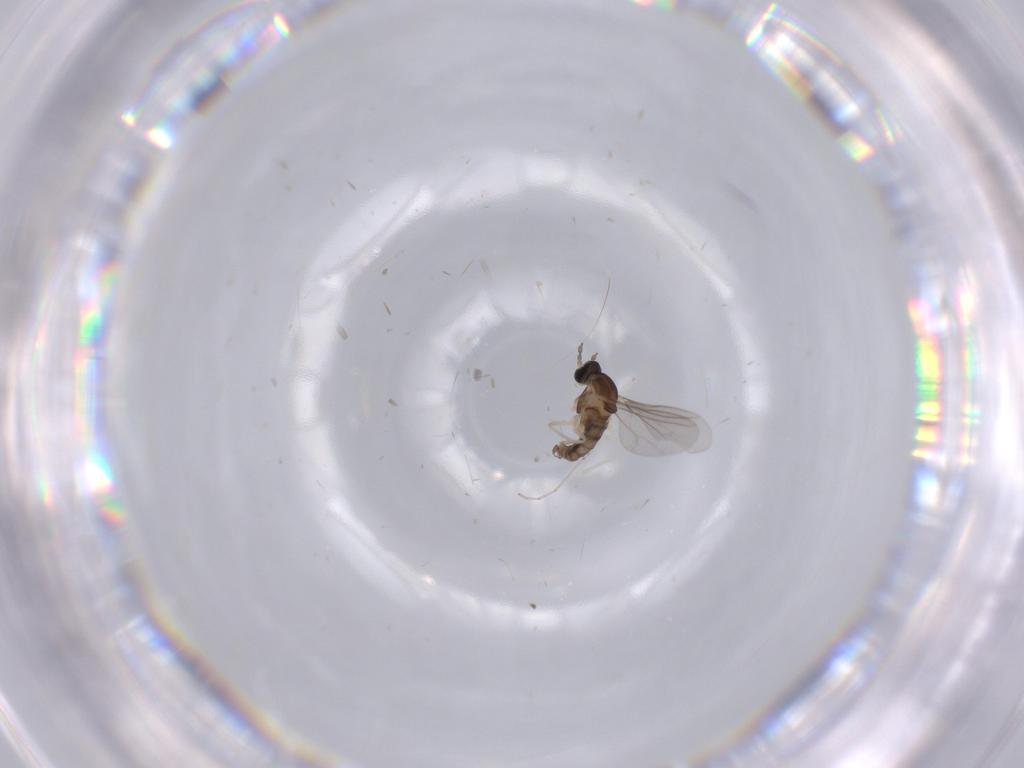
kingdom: Animalia
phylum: Arthropoda
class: Insecta
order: Diptera
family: Cecidomyiidae
